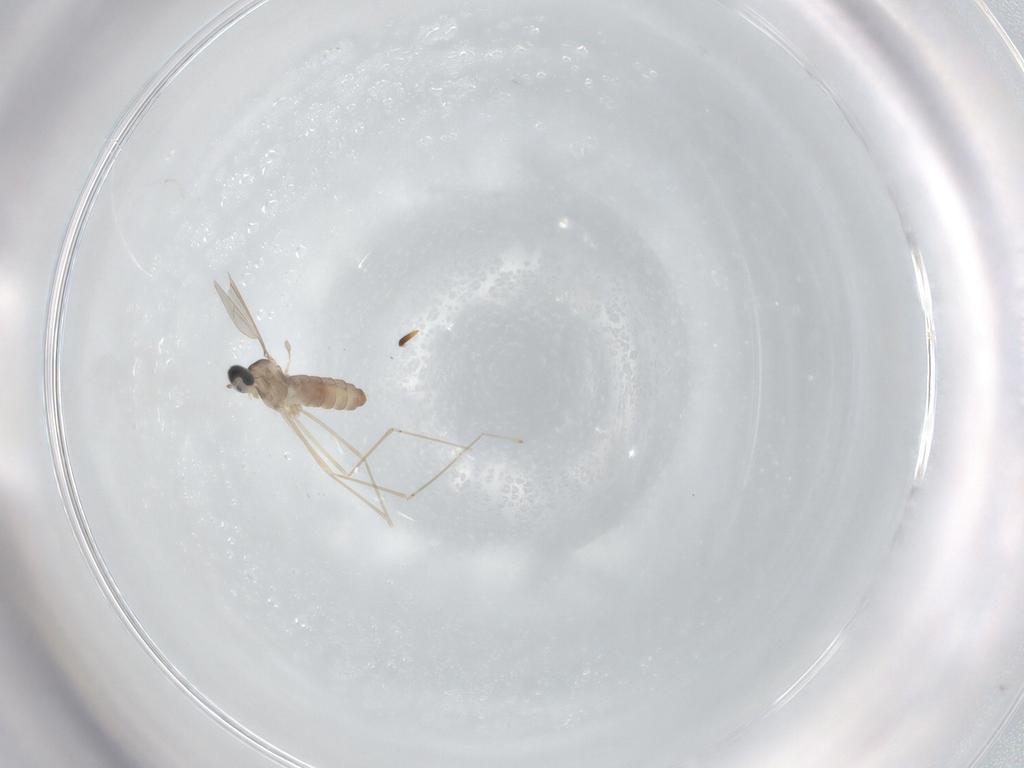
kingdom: Animalia
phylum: Arthropoda
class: Insecta
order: Diptera
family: Cecidomyiidae
